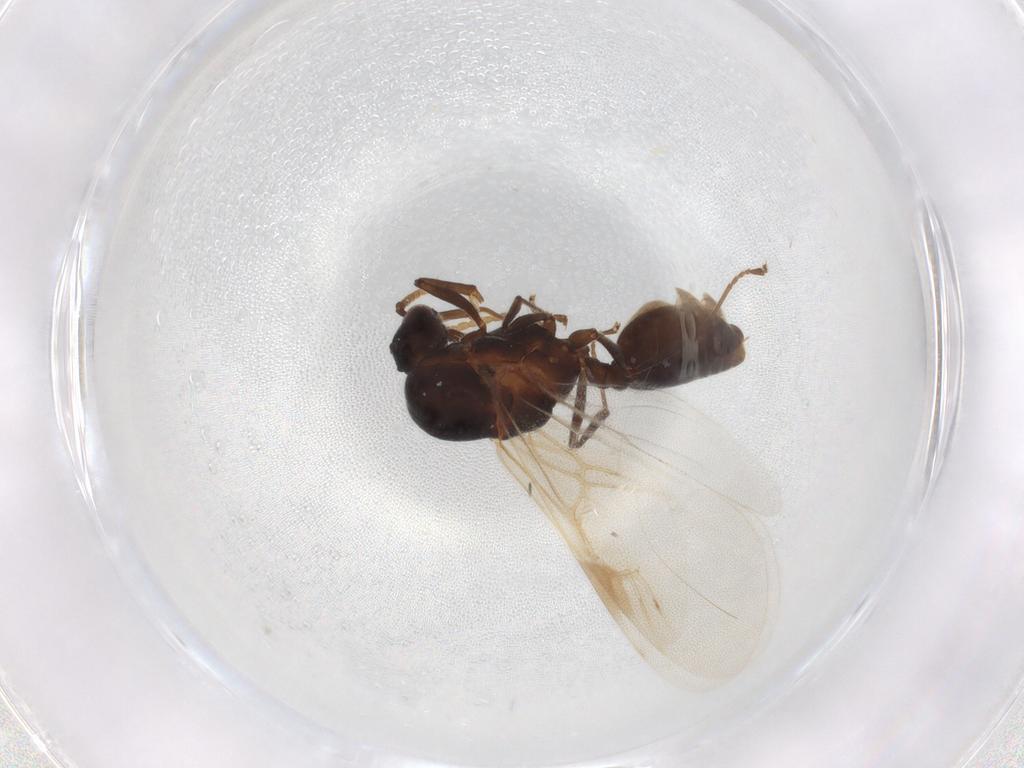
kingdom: Animalia
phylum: Arthropoda
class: Insecta
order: Hymenoptera
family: Formicidae
